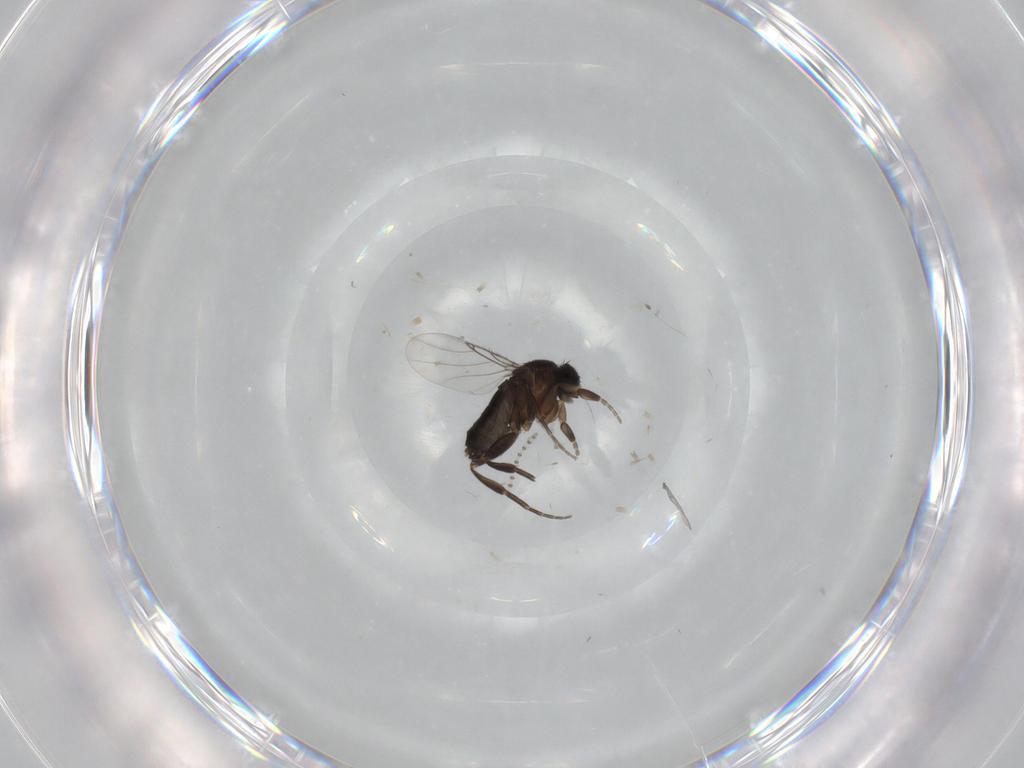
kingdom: Animalia
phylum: Arthropoda
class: Insecta
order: Diptera
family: Phoridae
